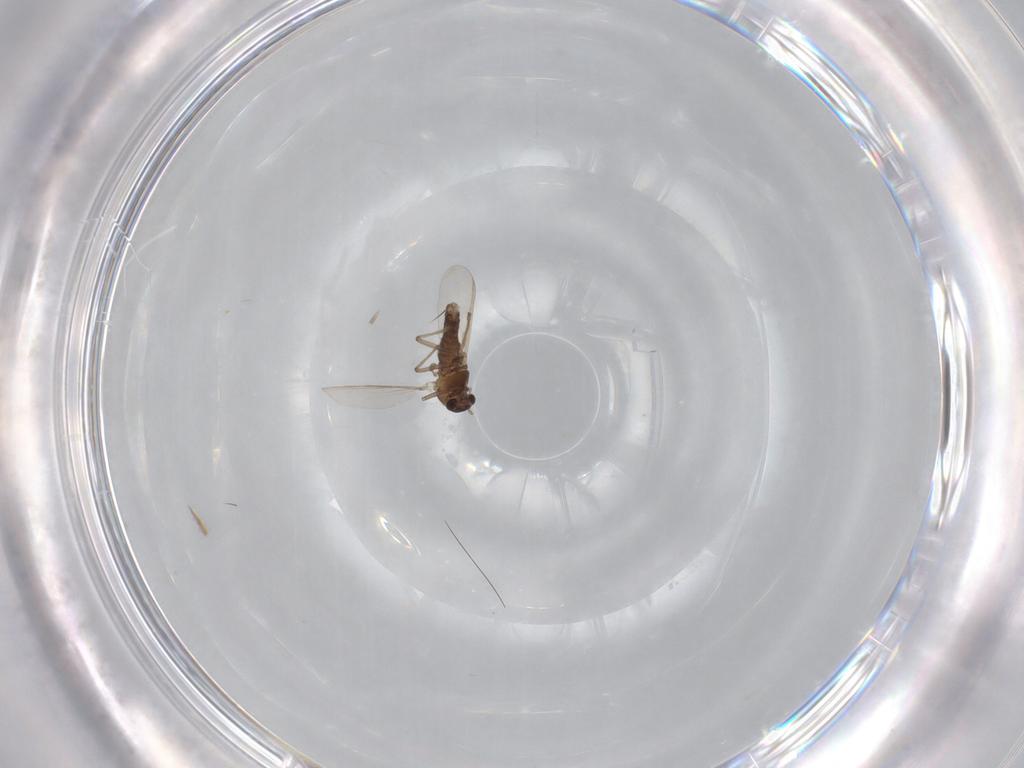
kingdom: Animalia
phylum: Arthropoda
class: Insecta
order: Diptera
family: Chironomidae
